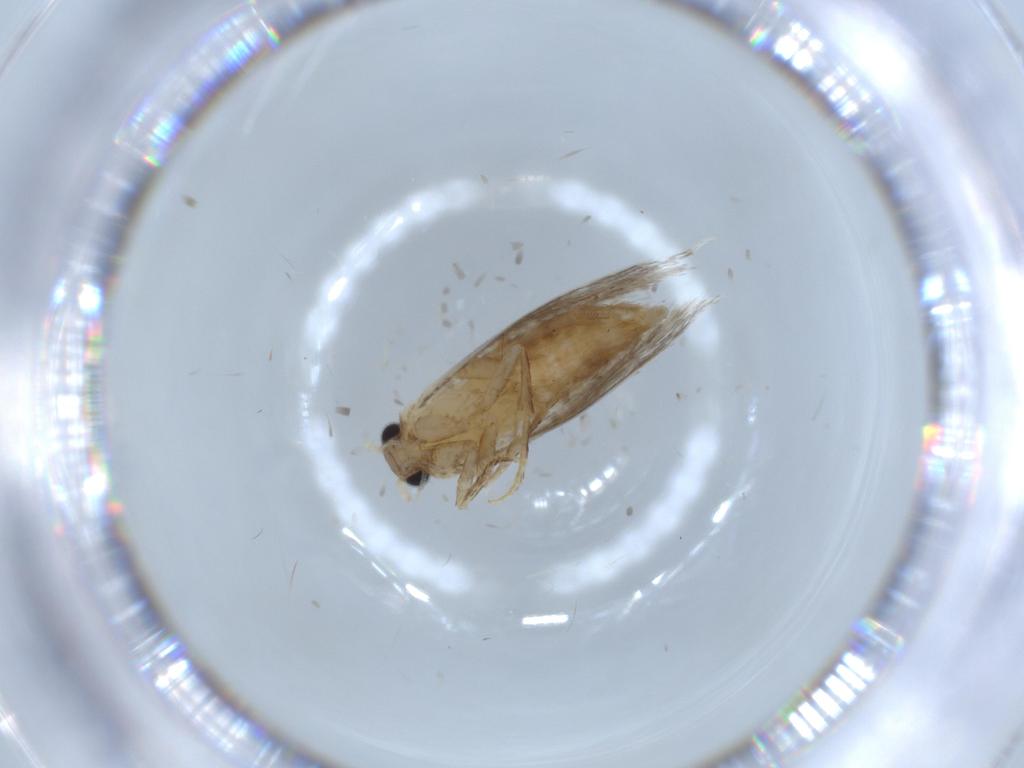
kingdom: Animalia
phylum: Arthropoda
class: Insecta
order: Lepidoptera
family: Tineidae
